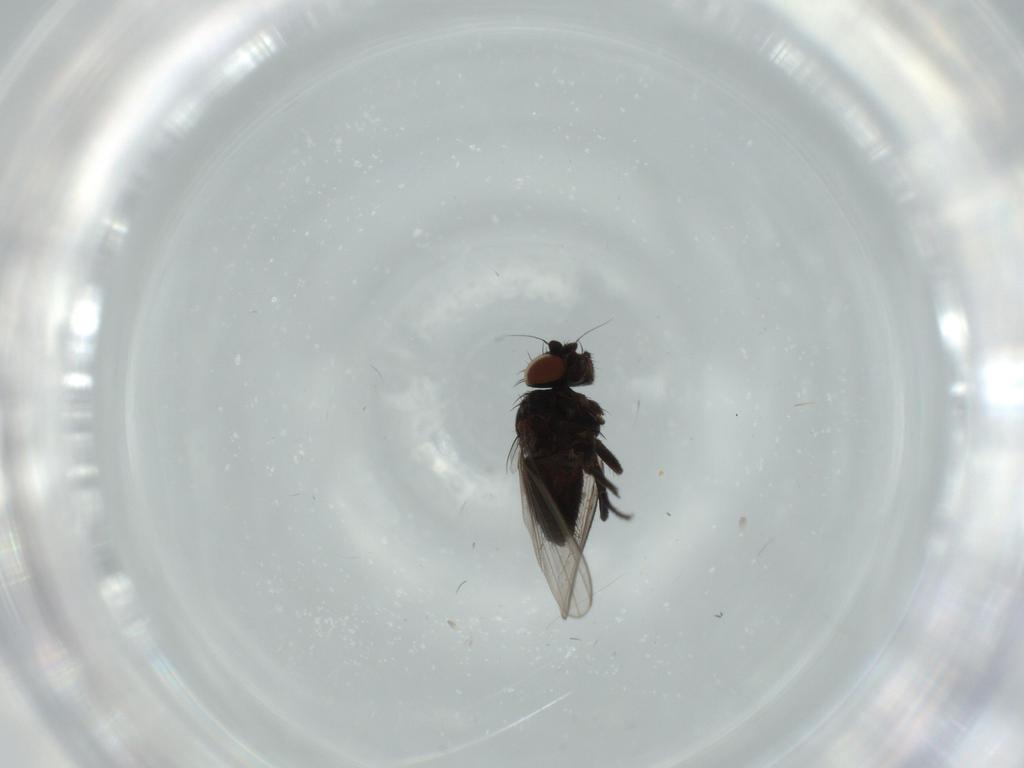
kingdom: Animalia
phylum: Arthropoda
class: Insecta
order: Diptera
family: Milichiidae
